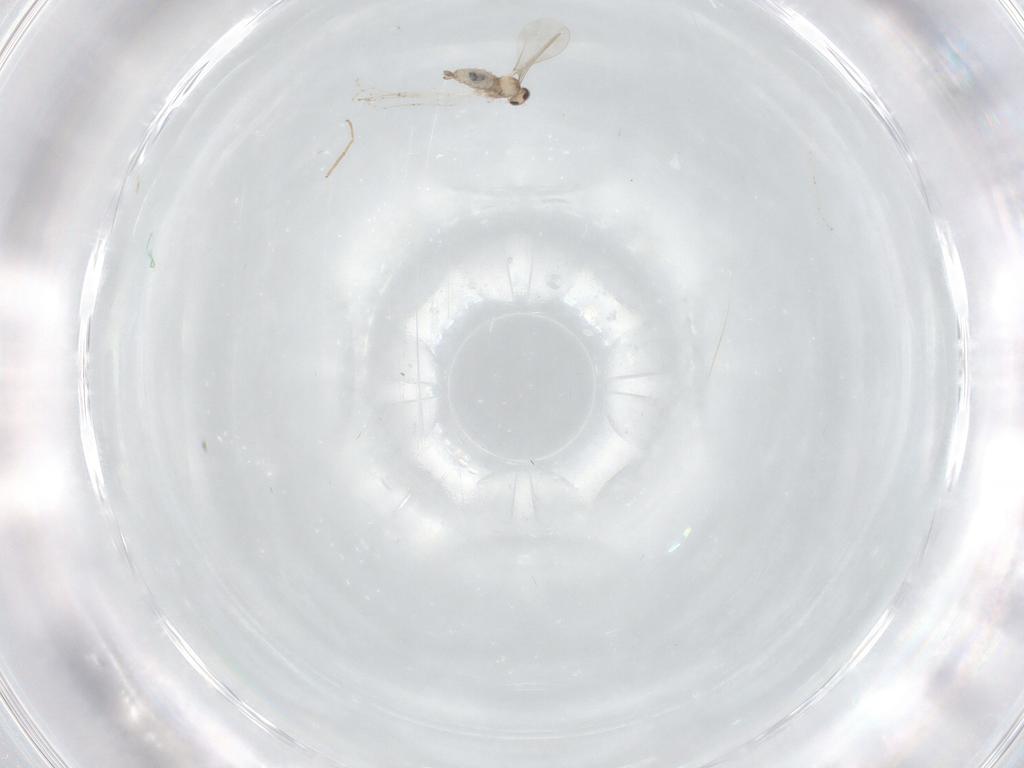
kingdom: Animalia
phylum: Arthropoda
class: Insecta
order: Diptera
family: Cecidomyiidae
